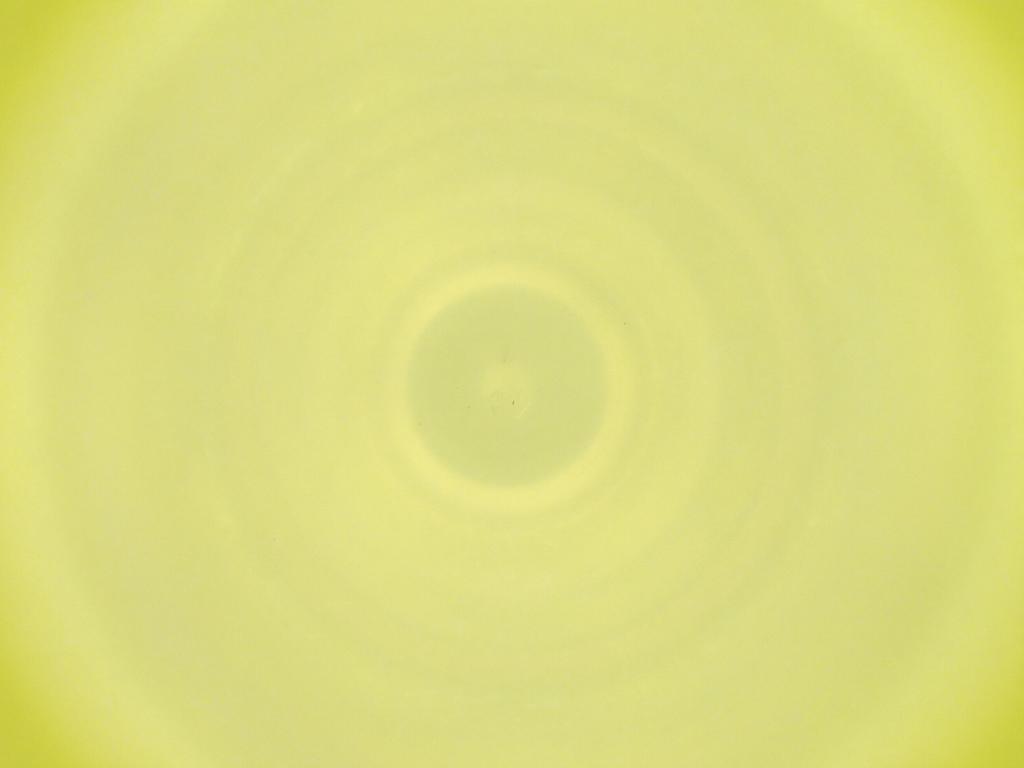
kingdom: Animalia
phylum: Arthropoda
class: Insecta
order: Diptera
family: Cecidomyiidae
